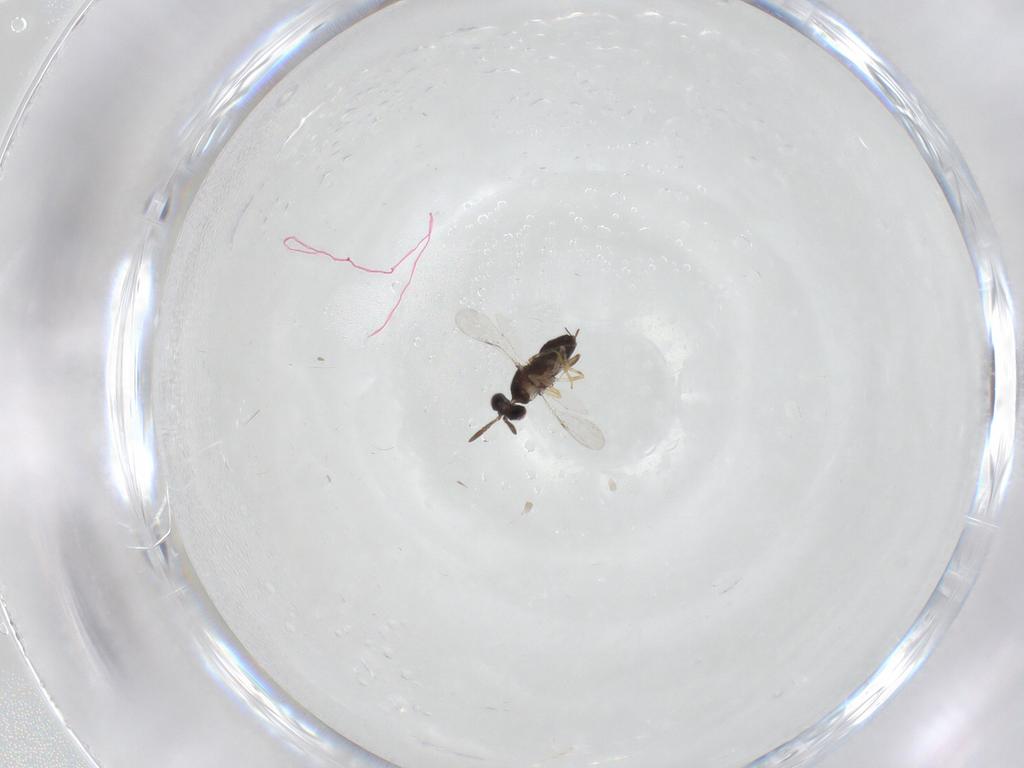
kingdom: Animalia
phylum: Arthropoda
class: Insecta
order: Hymenoptera
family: Encyrtidae
